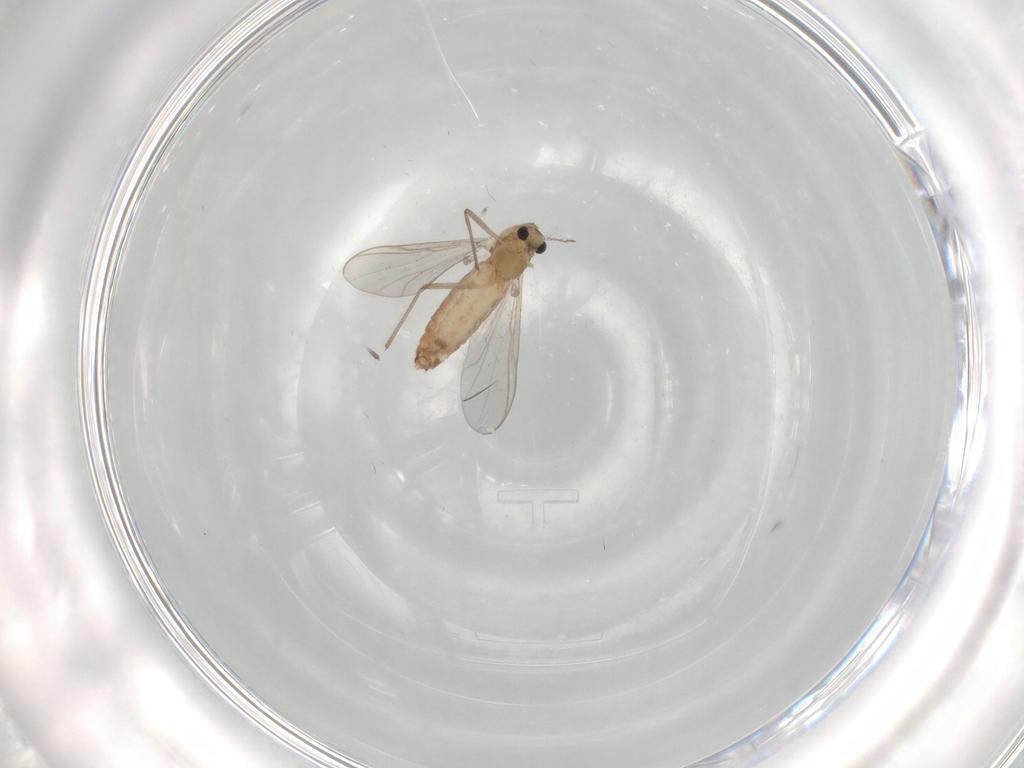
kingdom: Animalia
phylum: Arthropoda
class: Insecta
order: Diptera
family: Chironomidae
